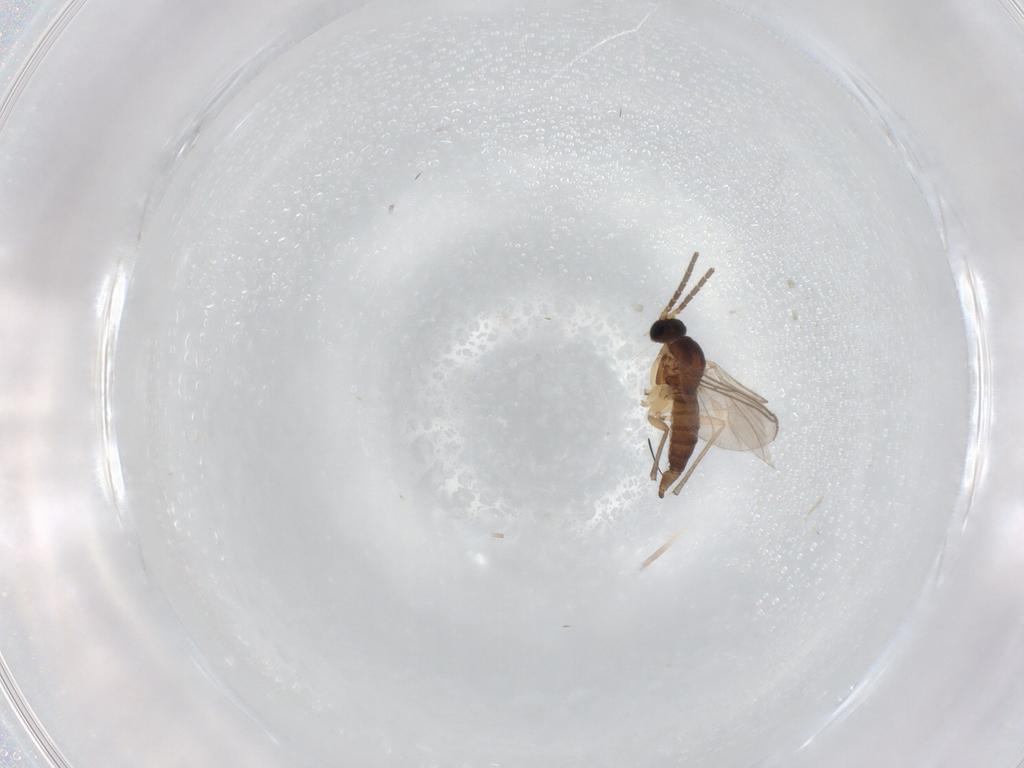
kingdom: Animalia
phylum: Arthropoda
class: Insecta
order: Diptera
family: Sciaridae
